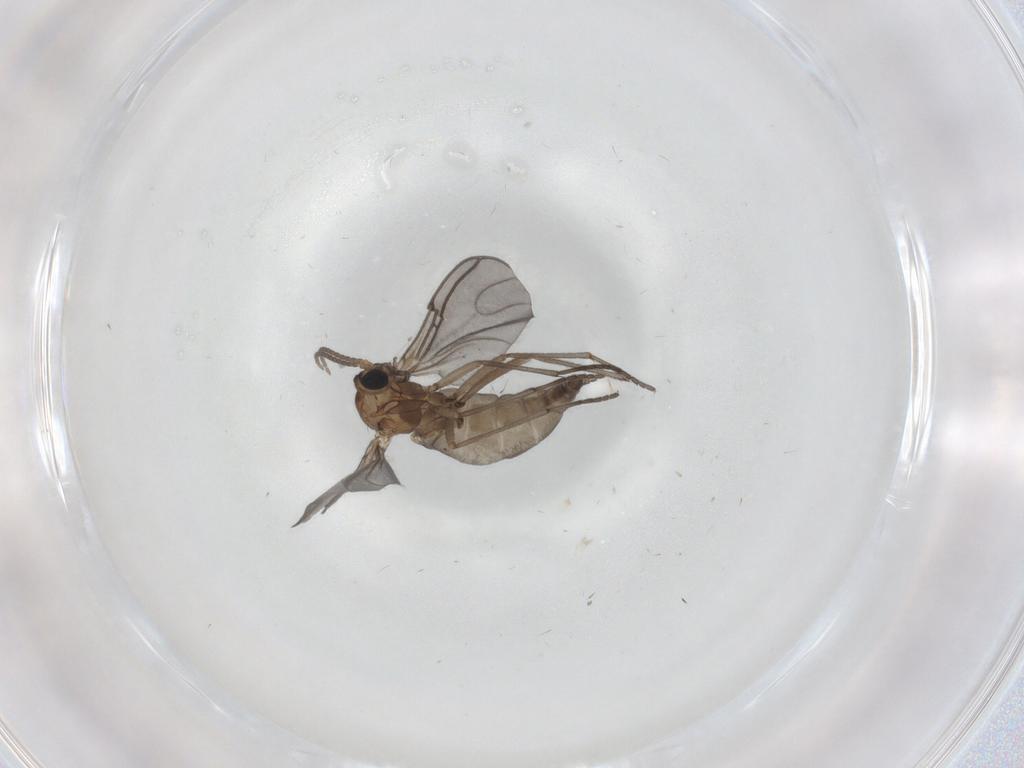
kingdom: Animalia
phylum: Arthropoda
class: Insecta
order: Diptera
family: Sciaridae
